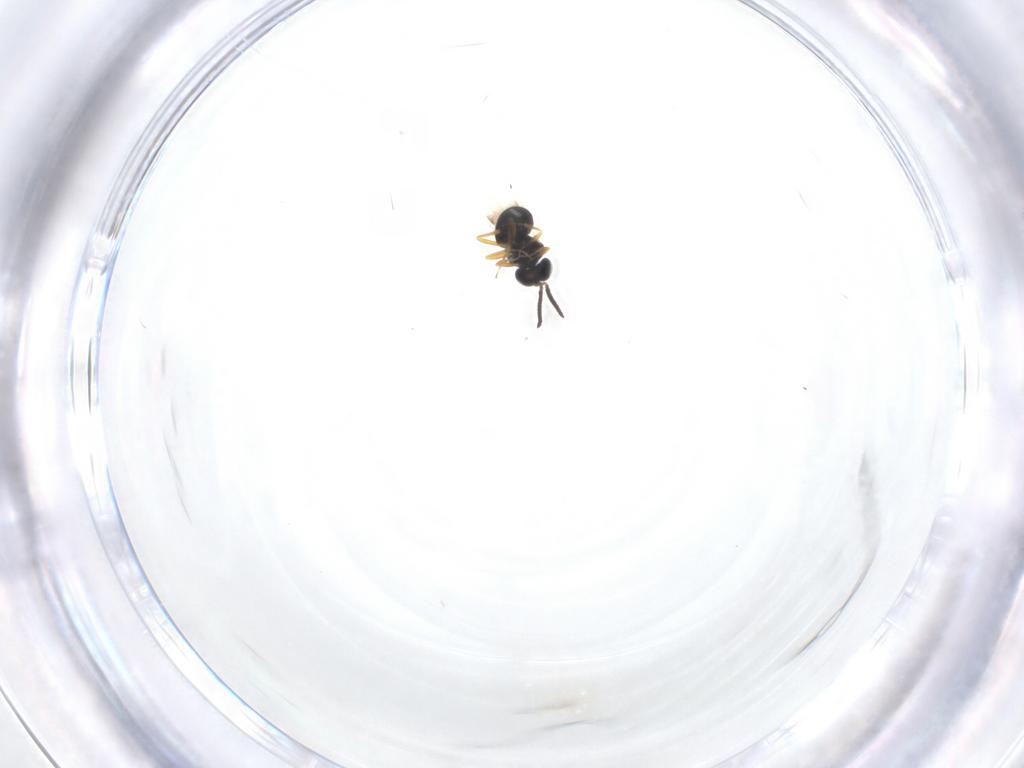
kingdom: Animalia
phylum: Arthropoda
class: Insecta
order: Hymenoptera
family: Scelionidae
